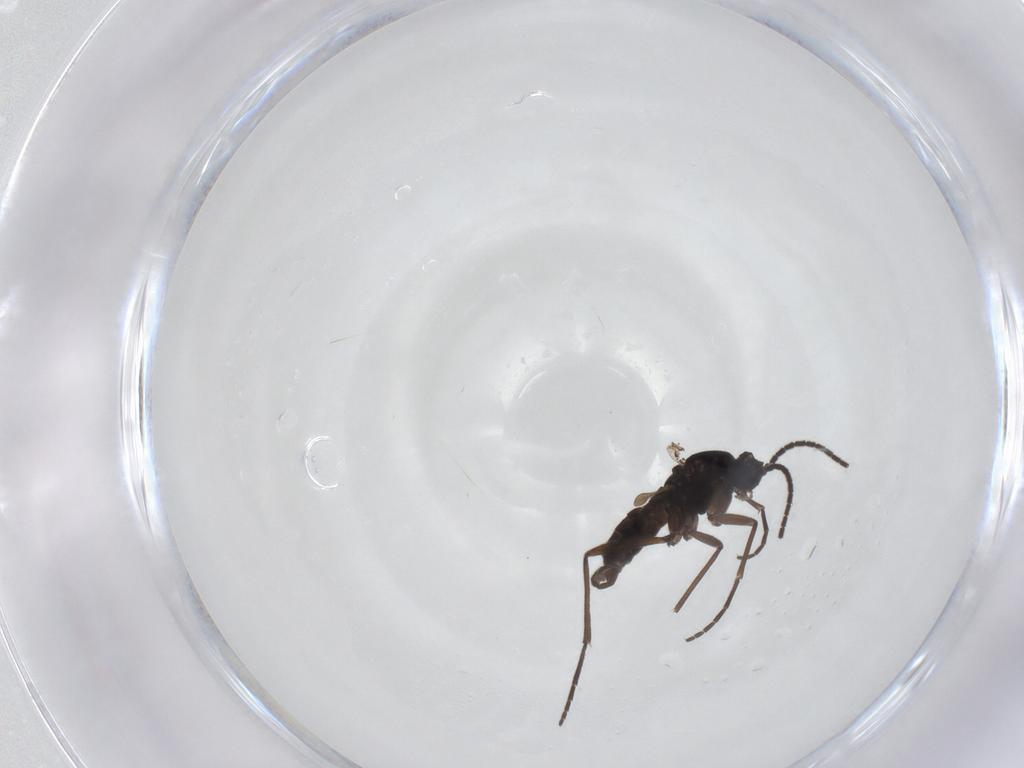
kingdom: Animalia
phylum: Arthropoda
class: Insecta
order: Diptera
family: Sciaridae
